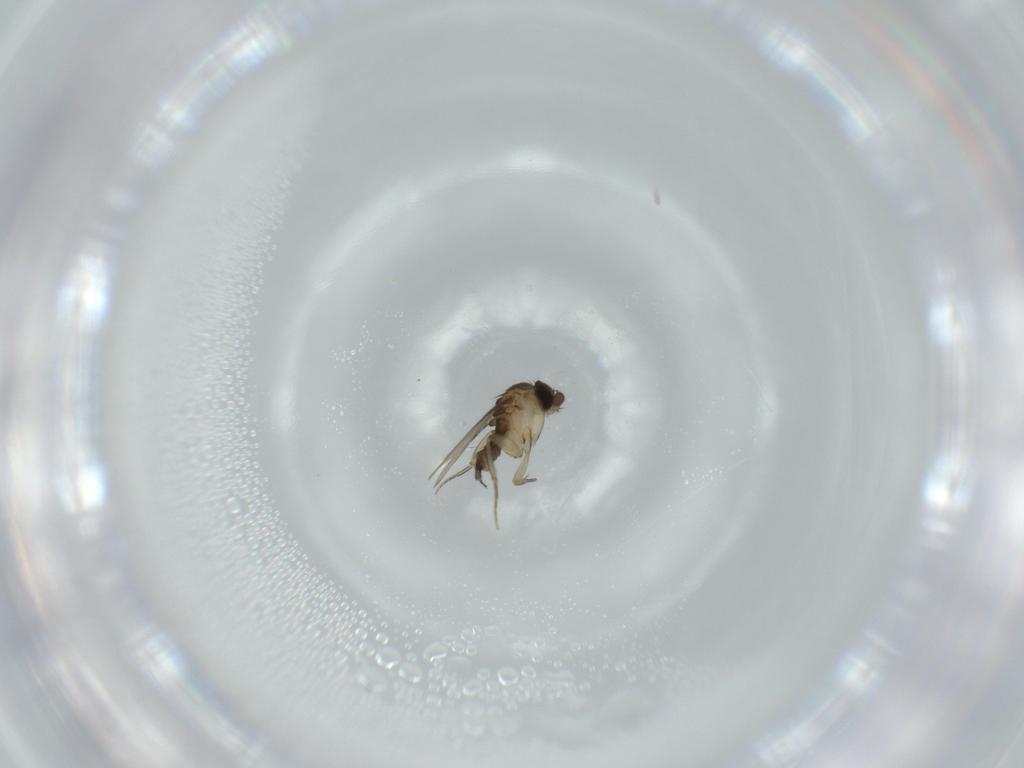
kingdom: Animalia
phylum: Arthropoda
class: Insecta
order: Diptera
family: Phoridae
